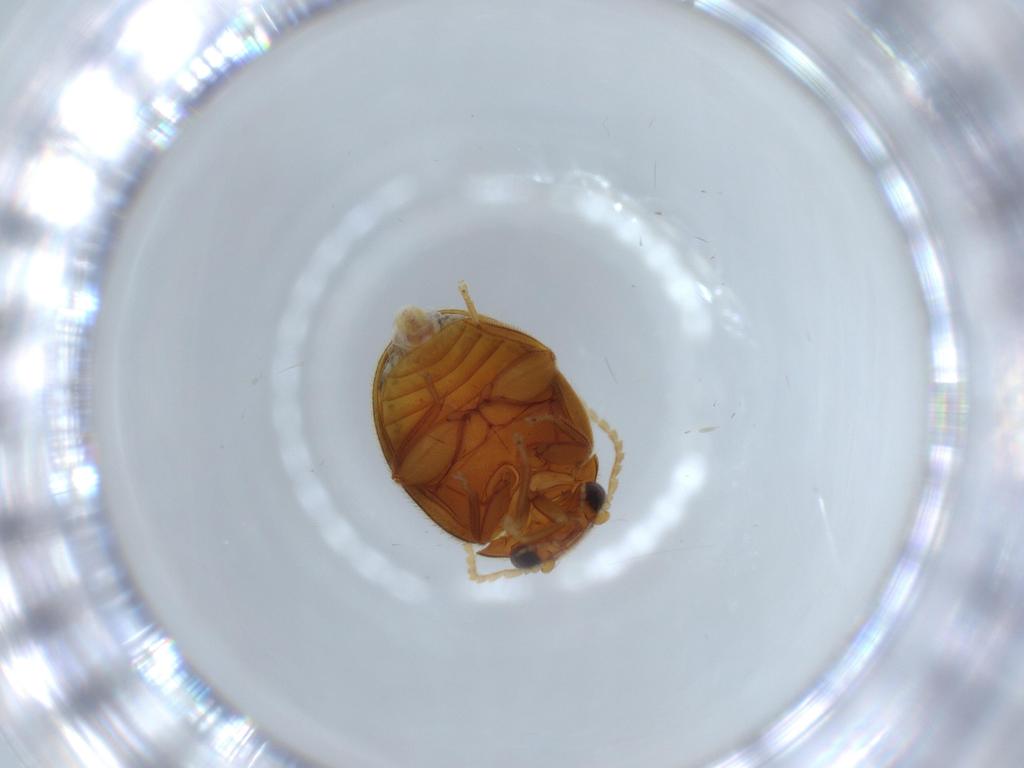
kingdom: Animalia
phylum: Arthropoda
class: Insecta
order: Coleoptera
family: Scirtidae
